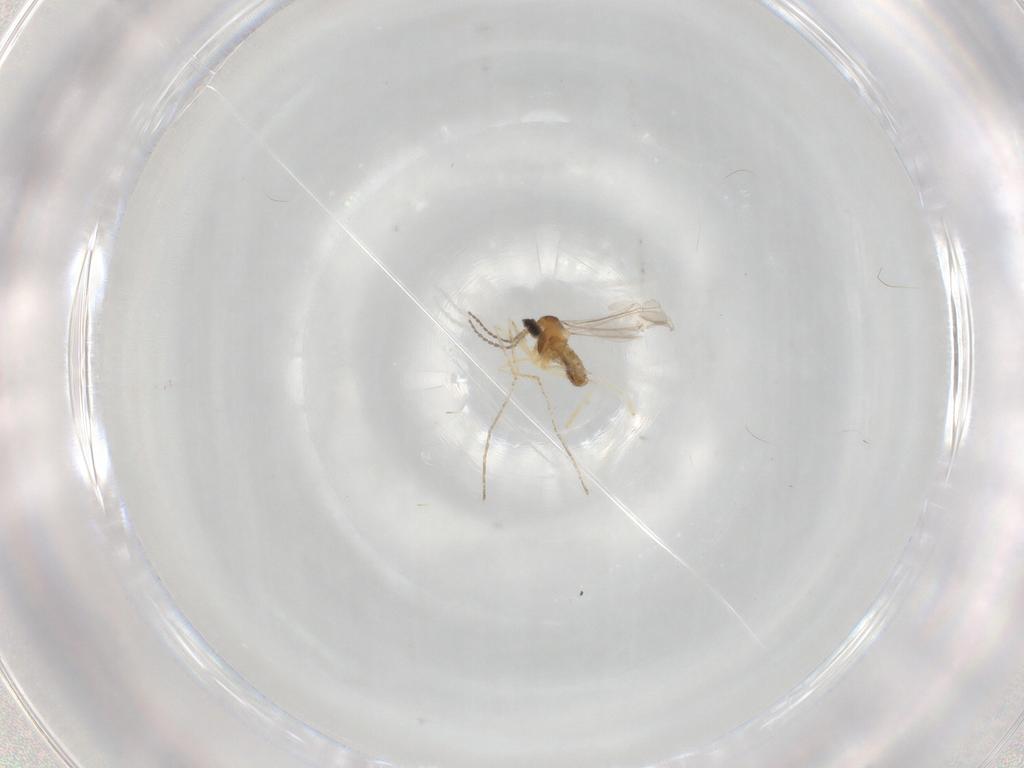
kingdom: Animalia
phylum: Arthropoda
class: Insecta
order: Diptera
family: Cecidomyiidae
